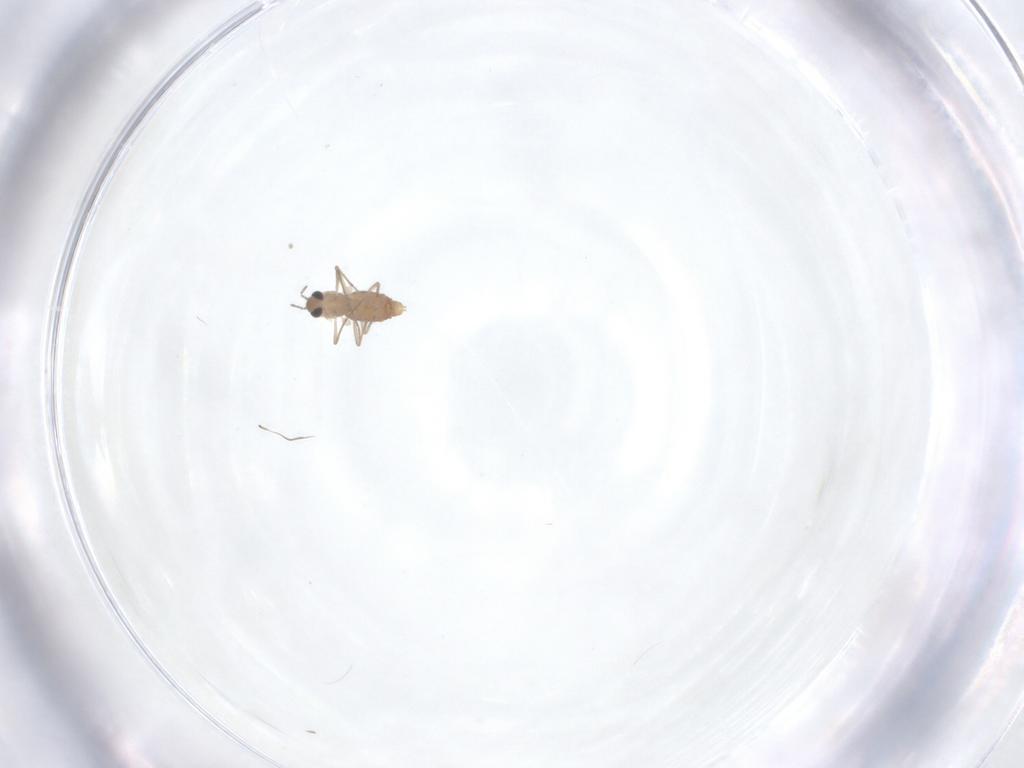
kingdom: Animalia
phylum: Arthropoda
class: Insecta
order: Diptera
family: Chironomidae
